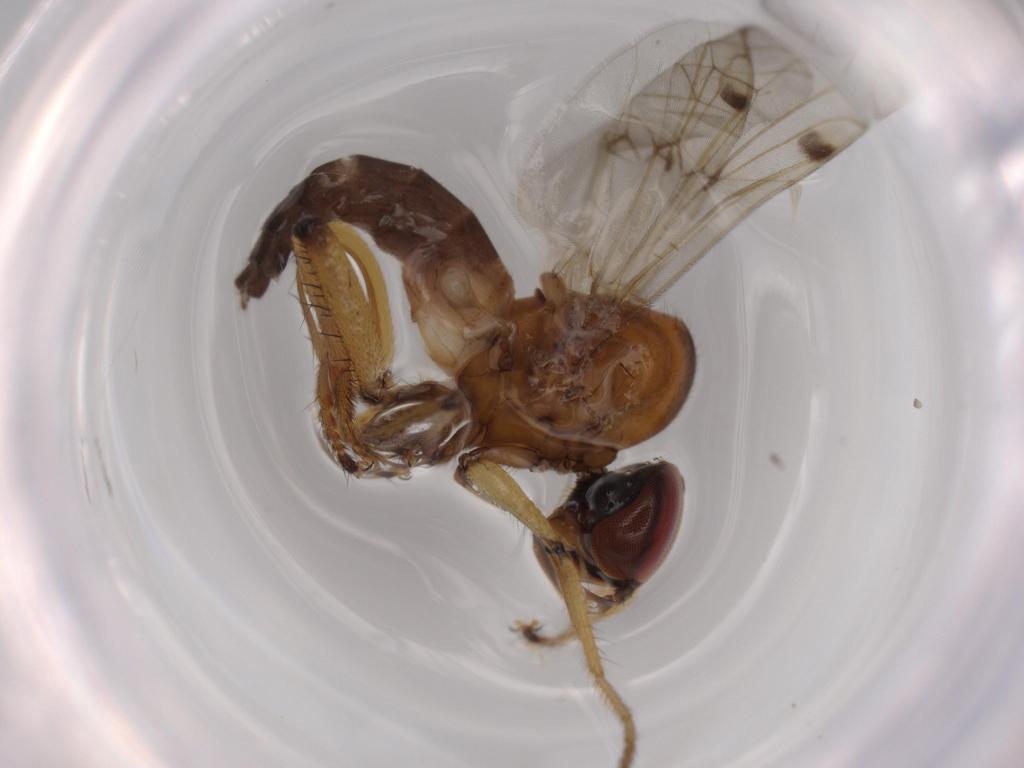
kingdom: Animalia
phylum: Arthropoda
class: Insecta
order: Diptera
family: Hybotidae
